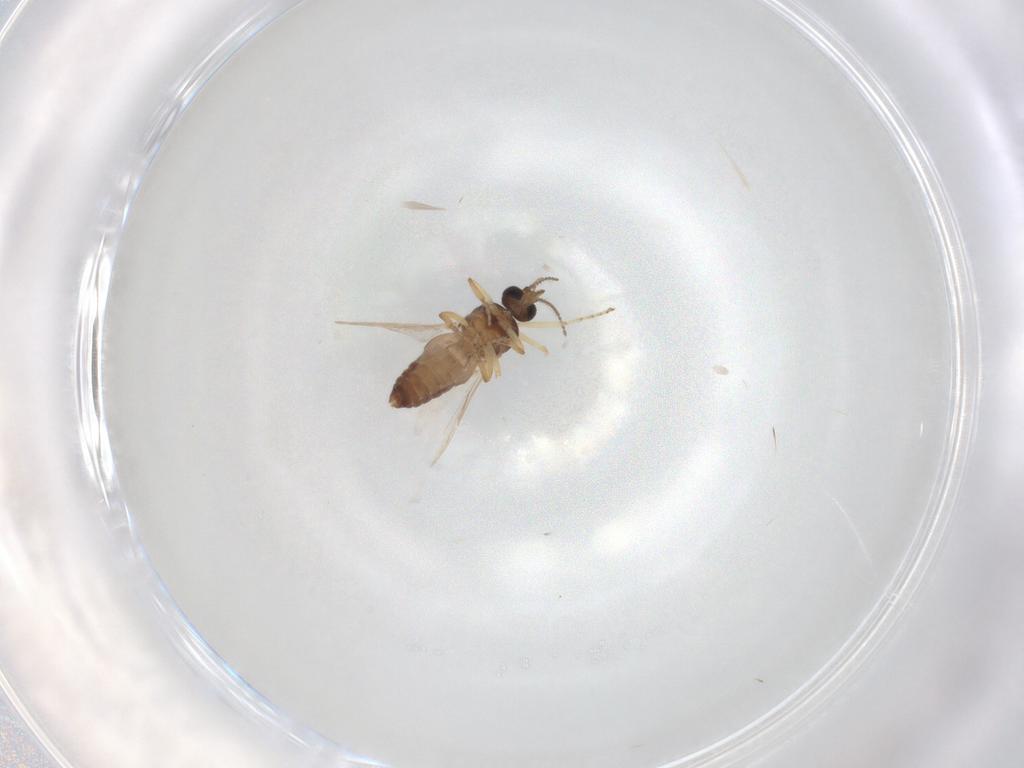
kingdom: Animalia
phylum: Arthropoda
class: Insecta
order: Diptera
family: Ceratopogonidae
